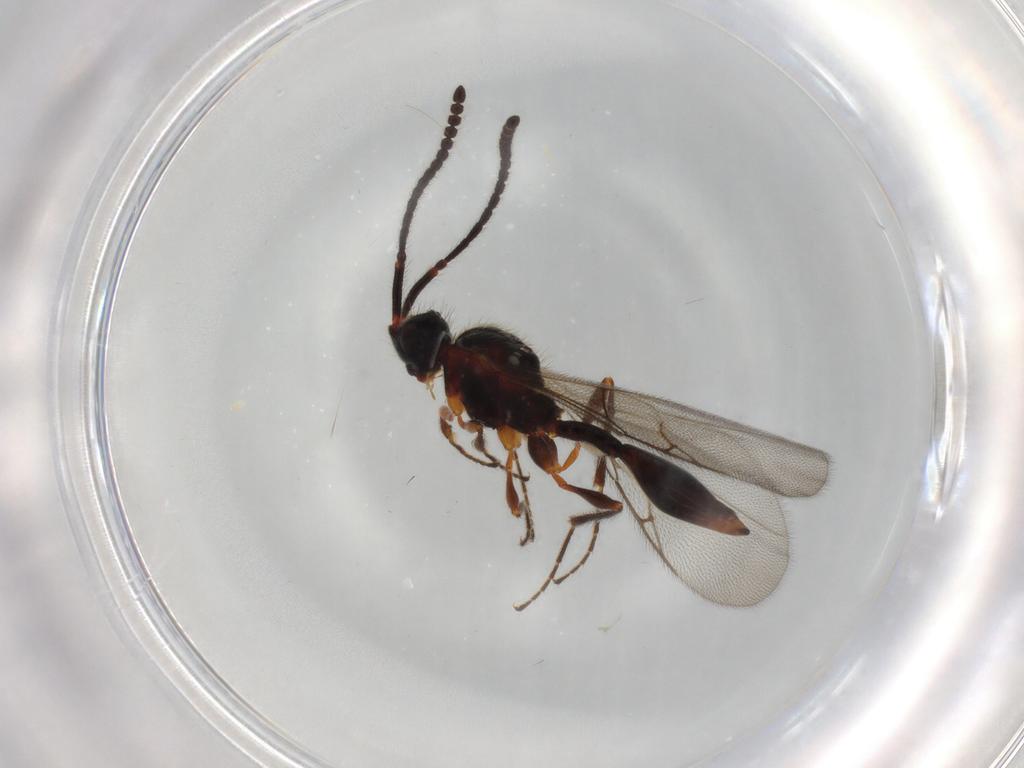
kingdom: Animalia
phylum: Arthropoda
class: Insecta
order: Hymenoptera
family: Diapriidae
